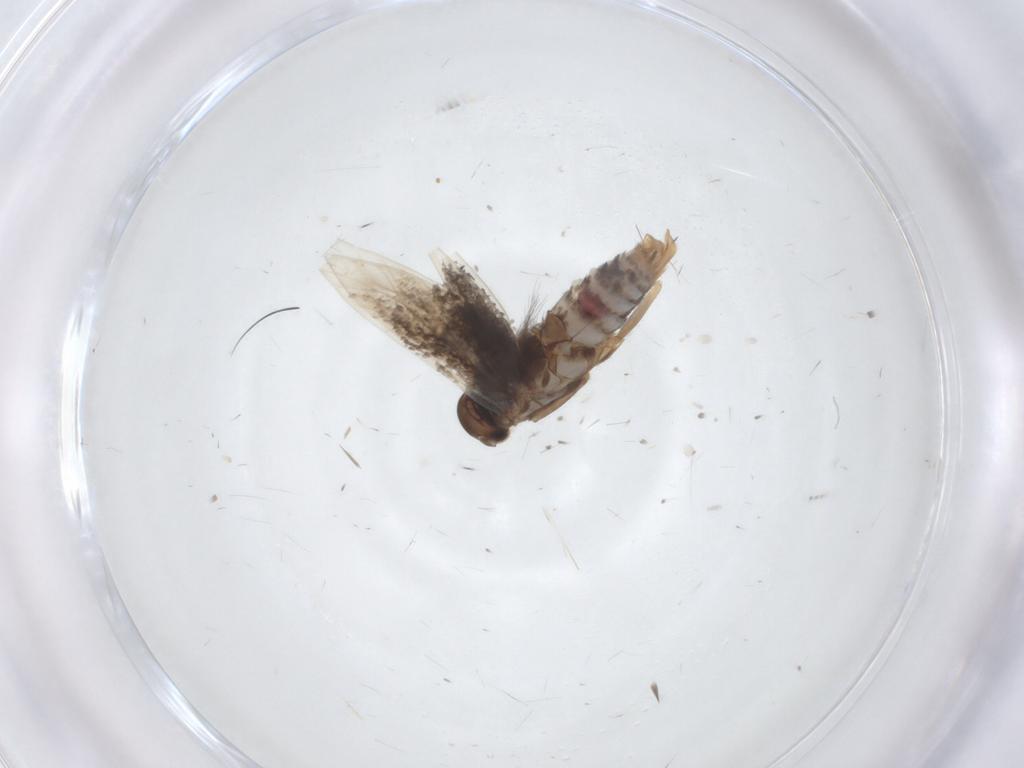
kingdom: Animalia
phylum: Arthropoda
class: Insecta
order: Lepidoptera
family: Elachistidae
